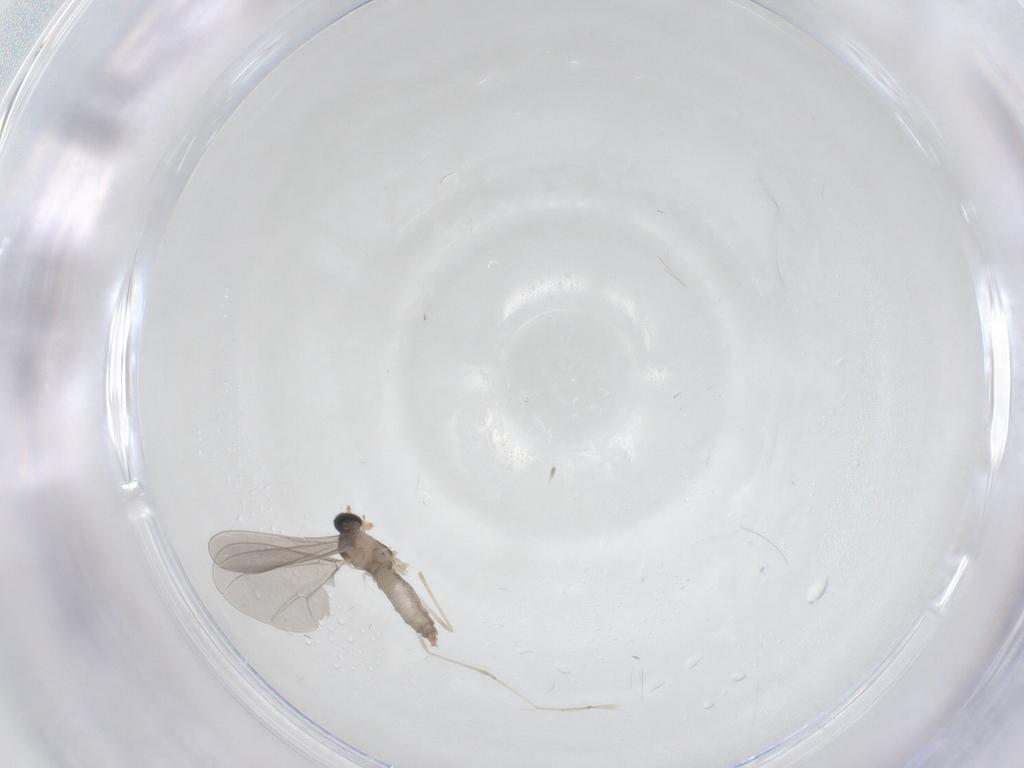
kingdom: Animalia
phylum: Arthropoda
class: Insecta
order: Diptera
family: Cecidomyiidae
